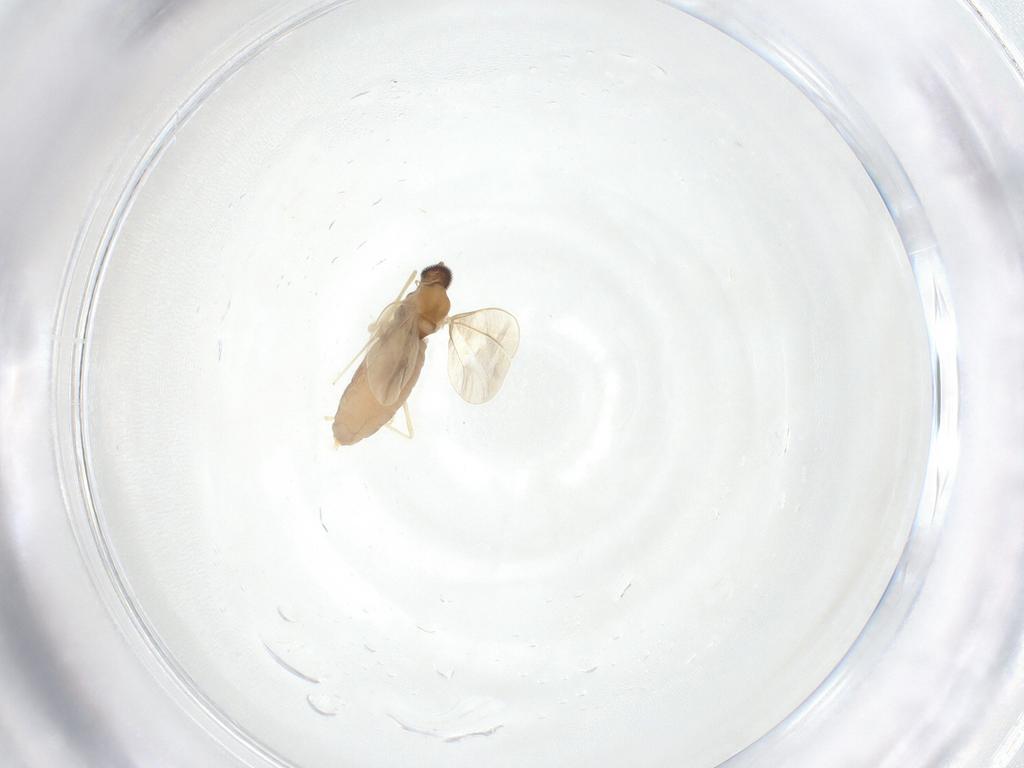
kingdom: Animalia
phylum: Arthropoda
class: Insecta
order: Diptera
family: Cecidomyiidae
